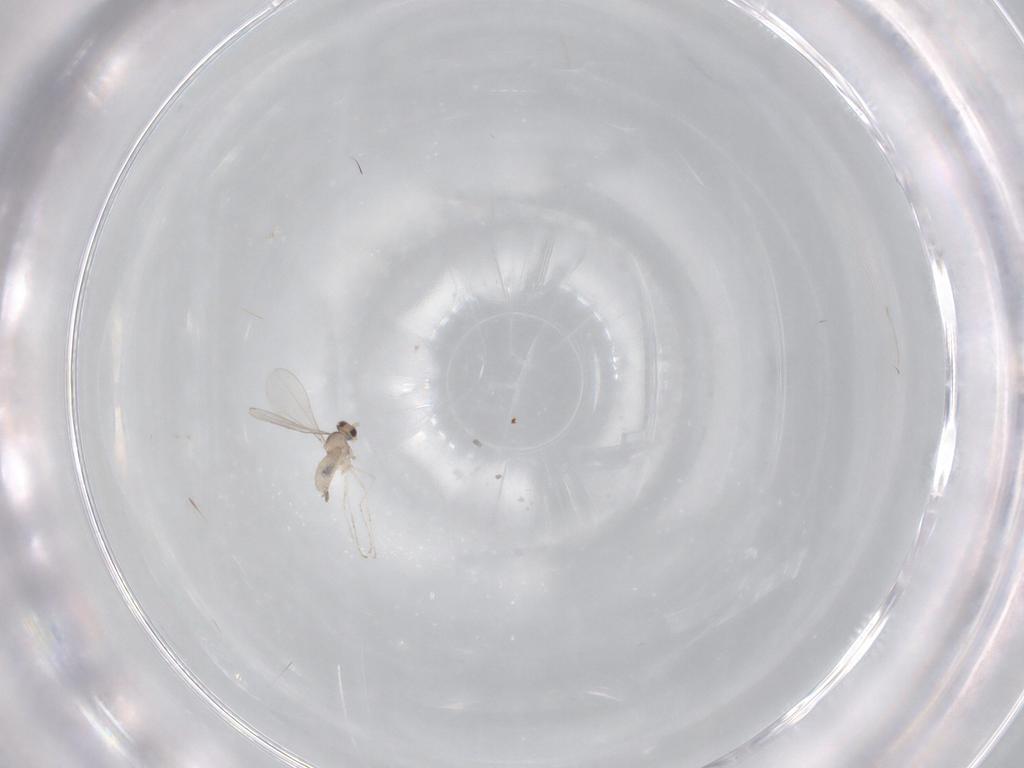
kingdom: Animalia
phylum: Arthropoda
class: Insecta
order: Diptera
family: Cecidomyiidae
